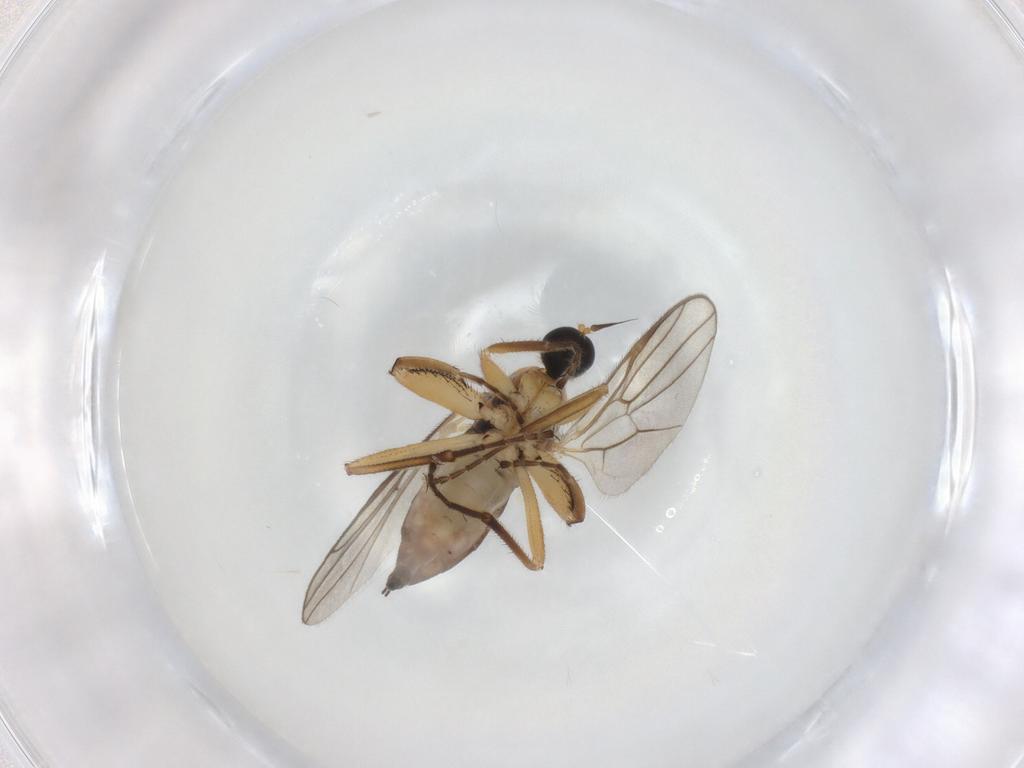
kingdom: Animalia
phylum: Arthropoda
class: Insecta
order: Diptera
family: Hybotidae
